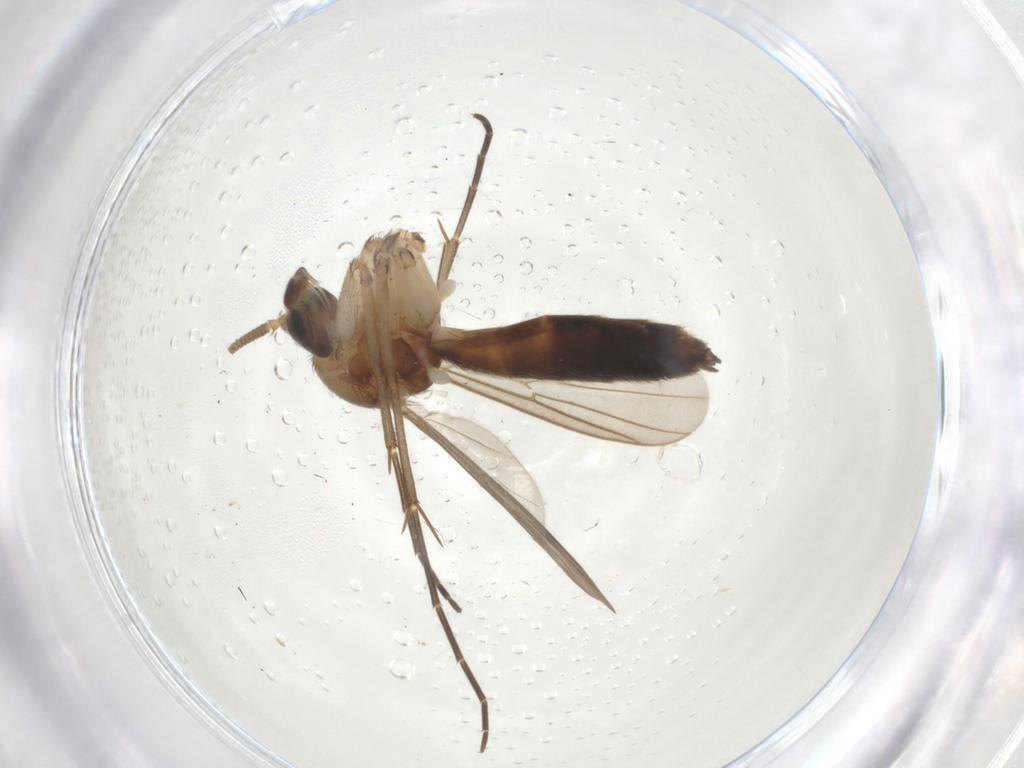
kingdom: Animalia
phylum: Arthropoda
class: Insecta
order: Diptera
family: Mycetophilidae
